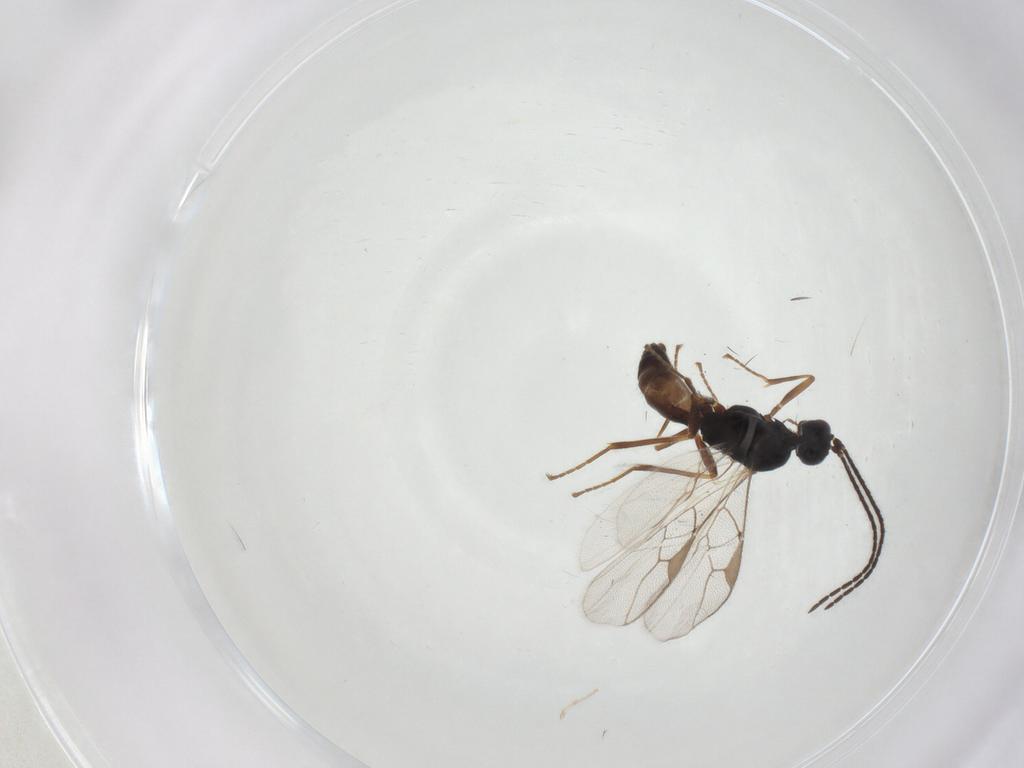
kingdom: Animalia
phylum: Arthropoda
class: Insecta
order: Hymenoptera
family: Braconidae
